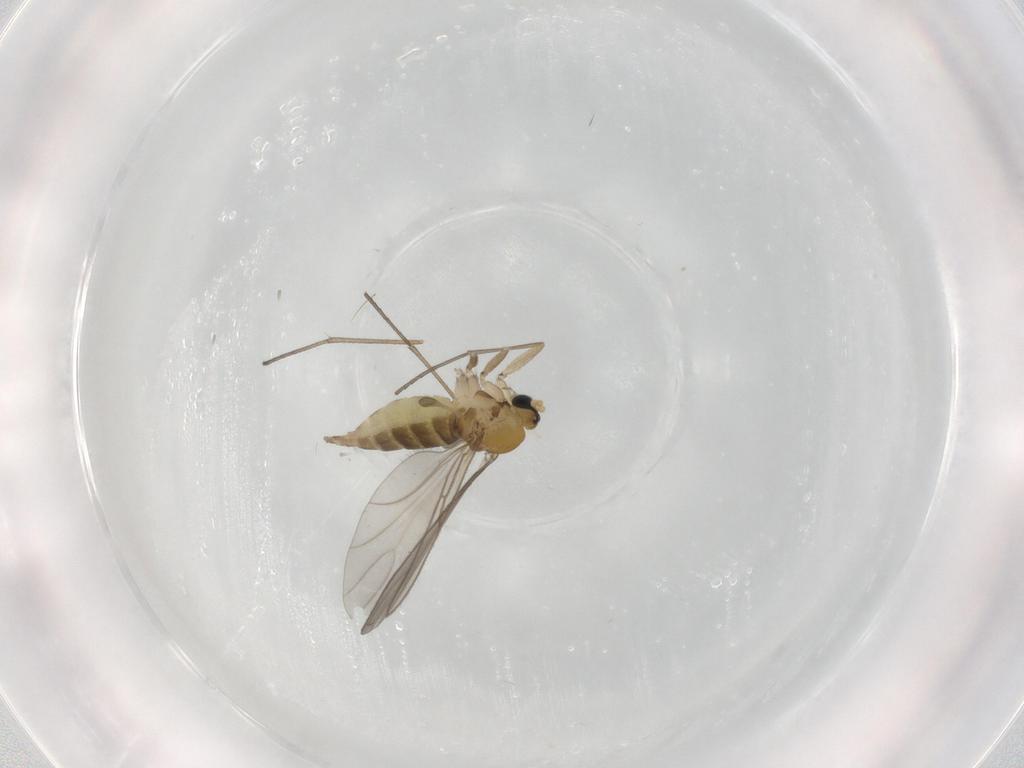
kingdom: Animalia
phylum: Arthropoda
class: Insecta
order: Diptera
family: Sciaridae
